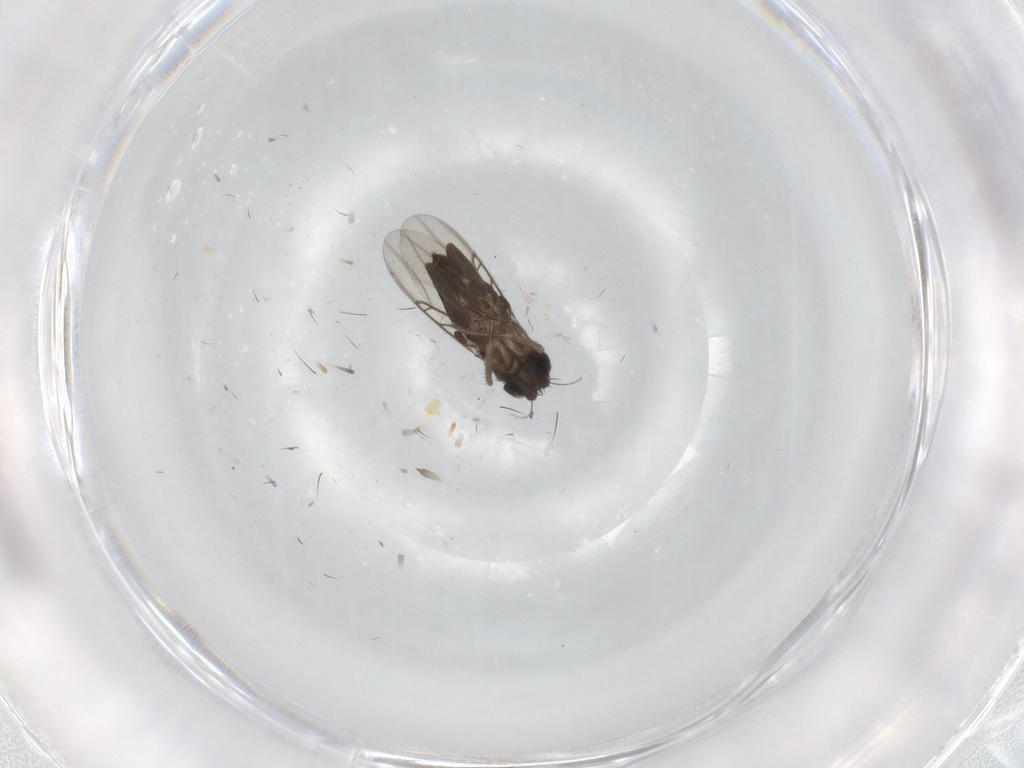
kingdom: Animalia
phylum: Arthropoda
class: Insecta
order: Diptera
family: Phoridae
